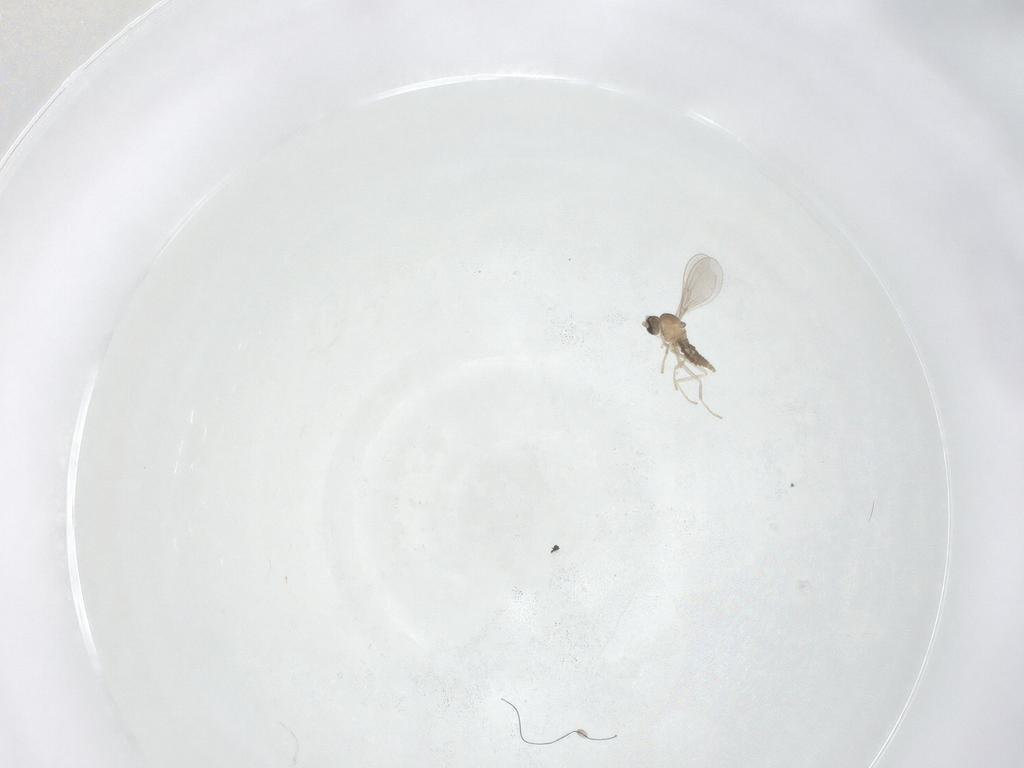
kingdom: Animalia
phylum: Arthropoda
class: Insecta
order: Diptera
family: Cecidomyiidae
